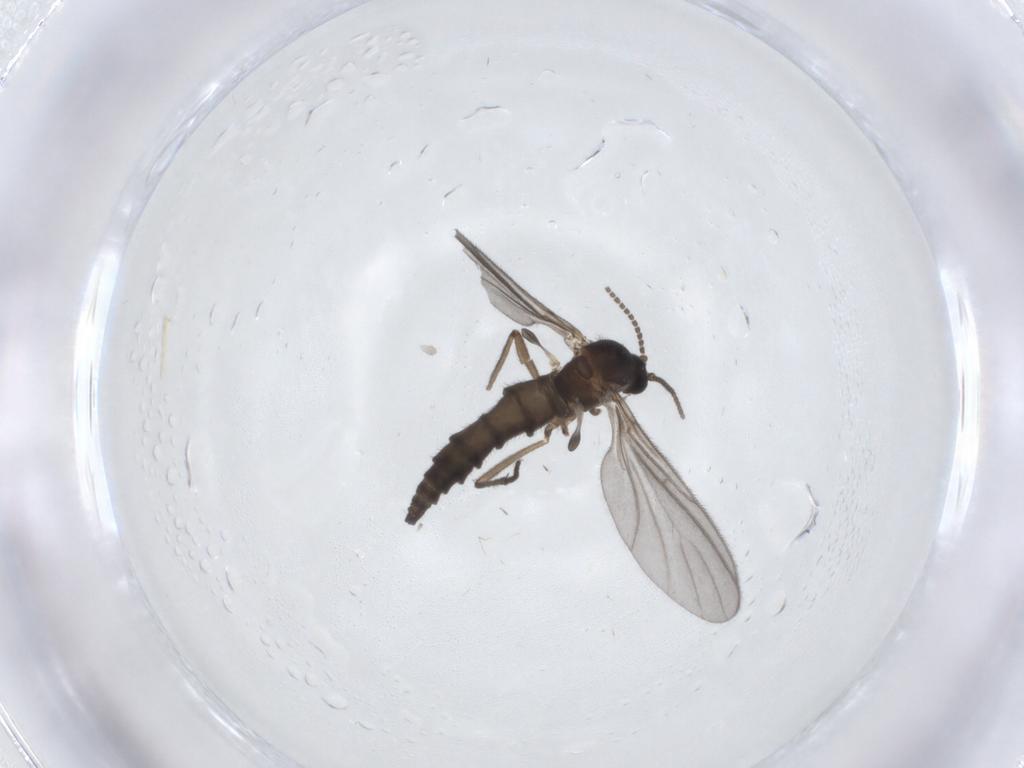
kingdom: Animalia
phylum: Arthropoda
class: Insecta
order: Diptera
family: Sciaridae
